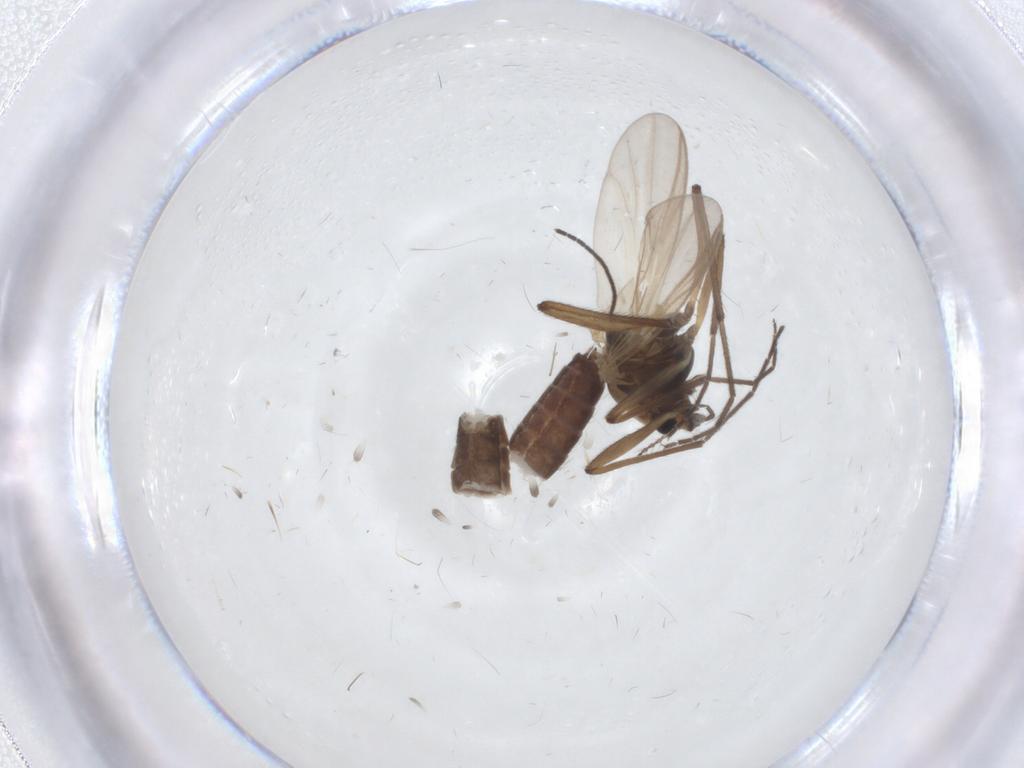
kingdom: Animalia
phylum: Arthropoda
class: Insecta
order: Diptera
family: Chironomidae
